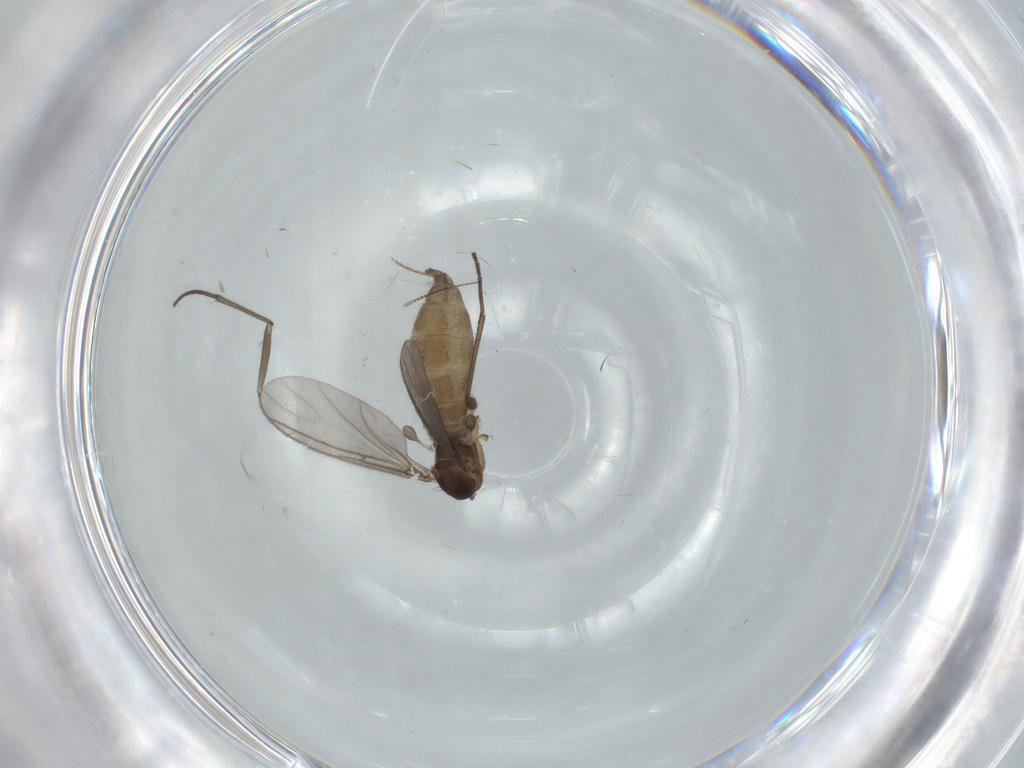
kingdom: Animalia
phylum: Arthropoda
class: Insecta
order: Diptera
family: Sciaridae
